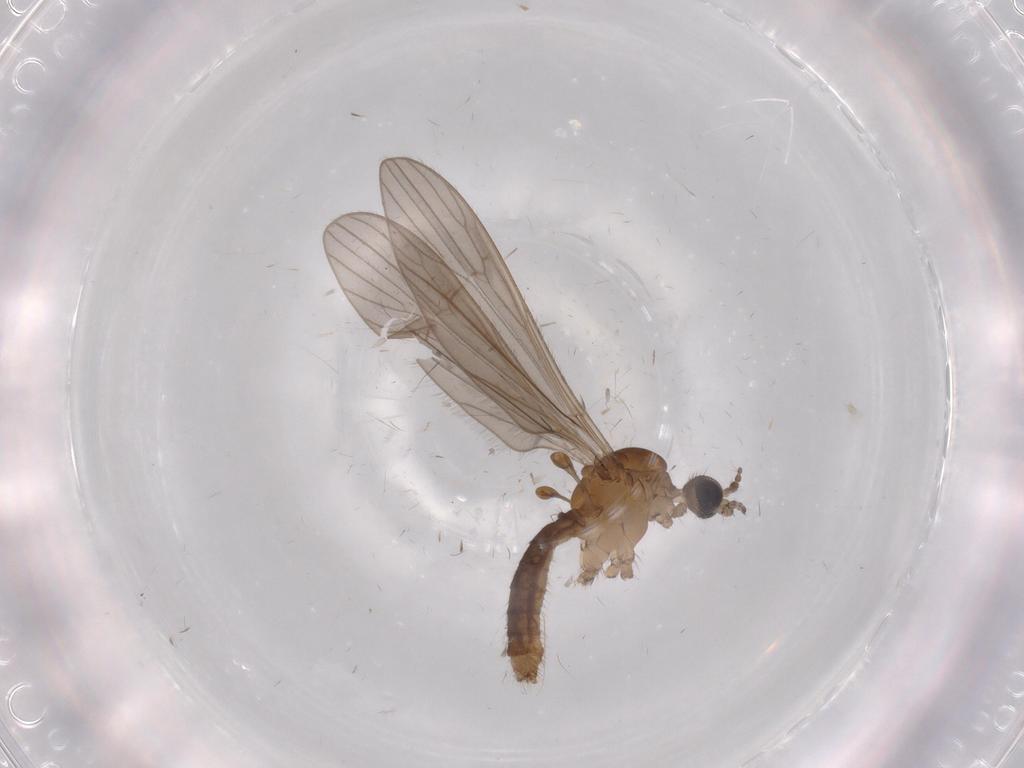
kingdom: Animalia
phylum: Arthropoda
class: Insecta
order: Diptera
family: Limoniidae
